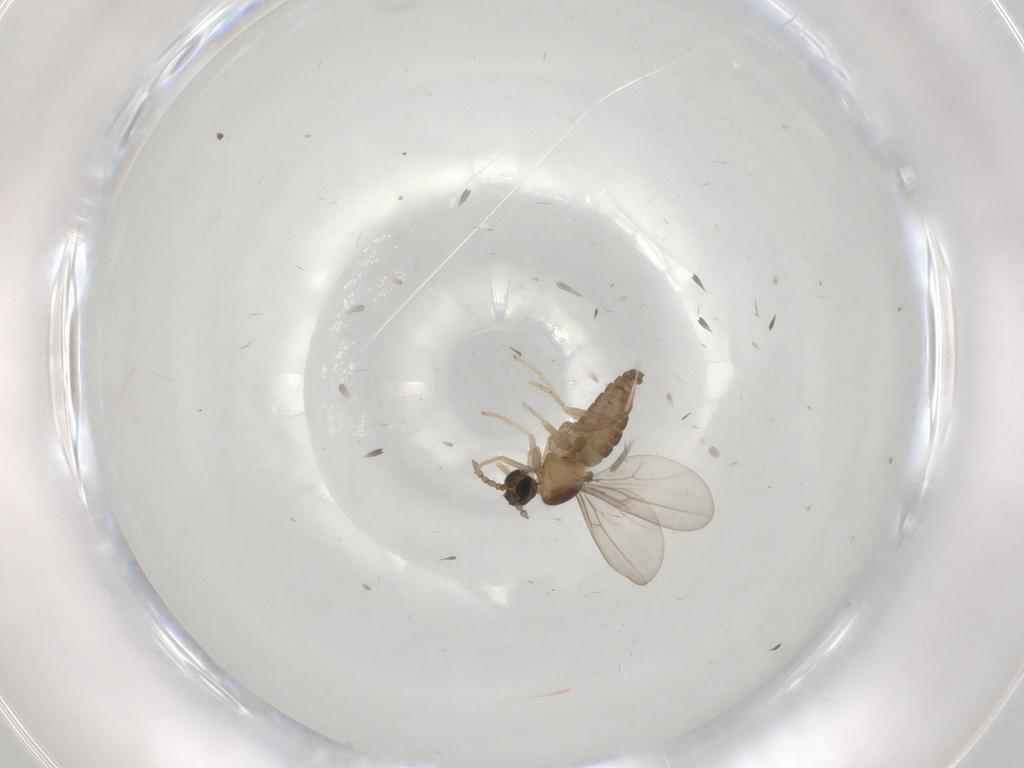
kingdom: Animalia
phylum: Arthropoda
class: Insecta
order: Diptera
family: Cecidomyiidae
